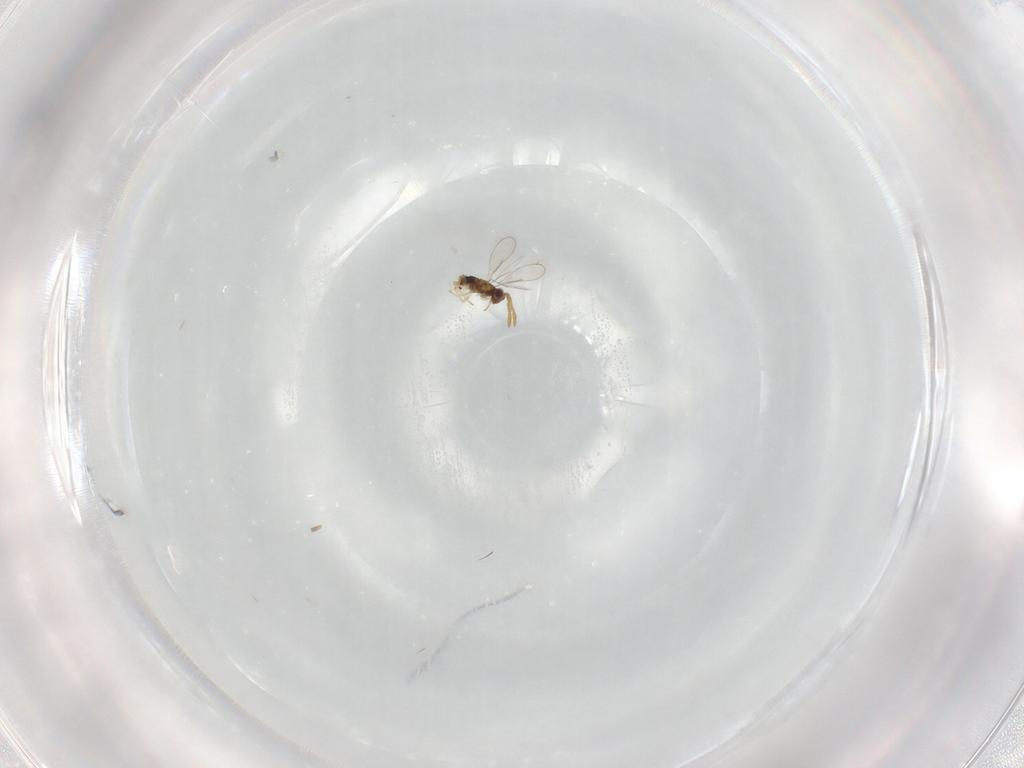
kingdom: Animalia
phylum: Arthropoda
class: Insecta
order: Hymenoptera
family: Aphelinidae
